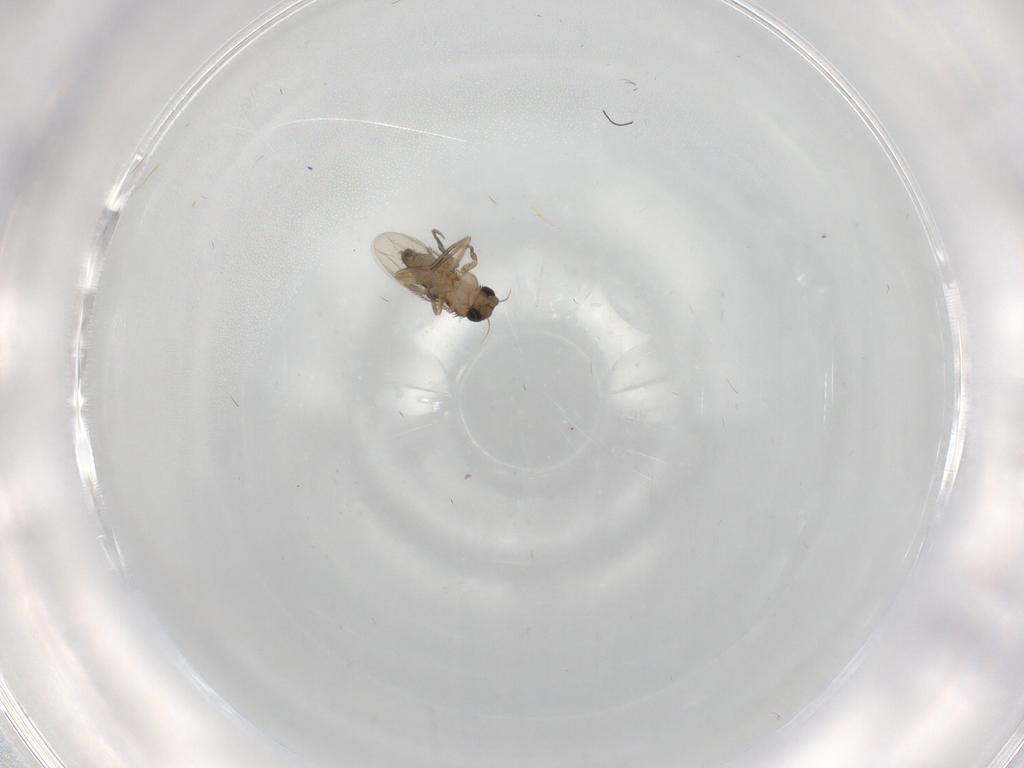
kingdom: Animalia
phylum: Arthropoda
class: Insecta
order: Diptera
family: Phoridae
